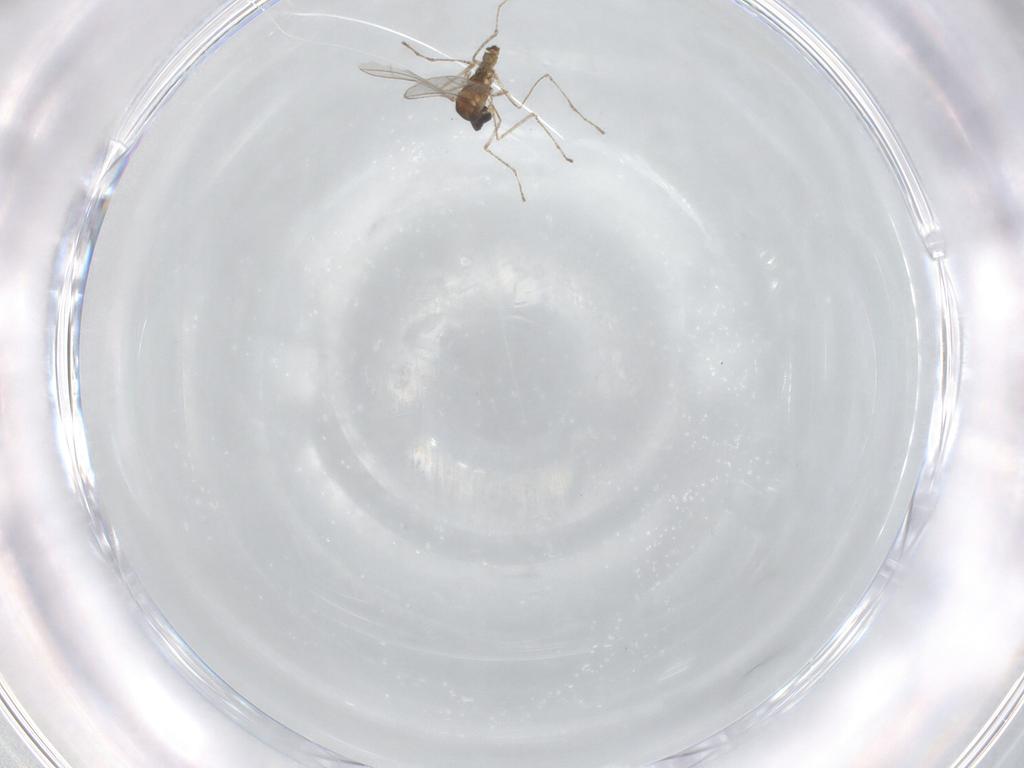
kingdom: Animalia
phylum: Arthropoda
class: Insecta
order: Diptera
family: Cecidomyiidae
